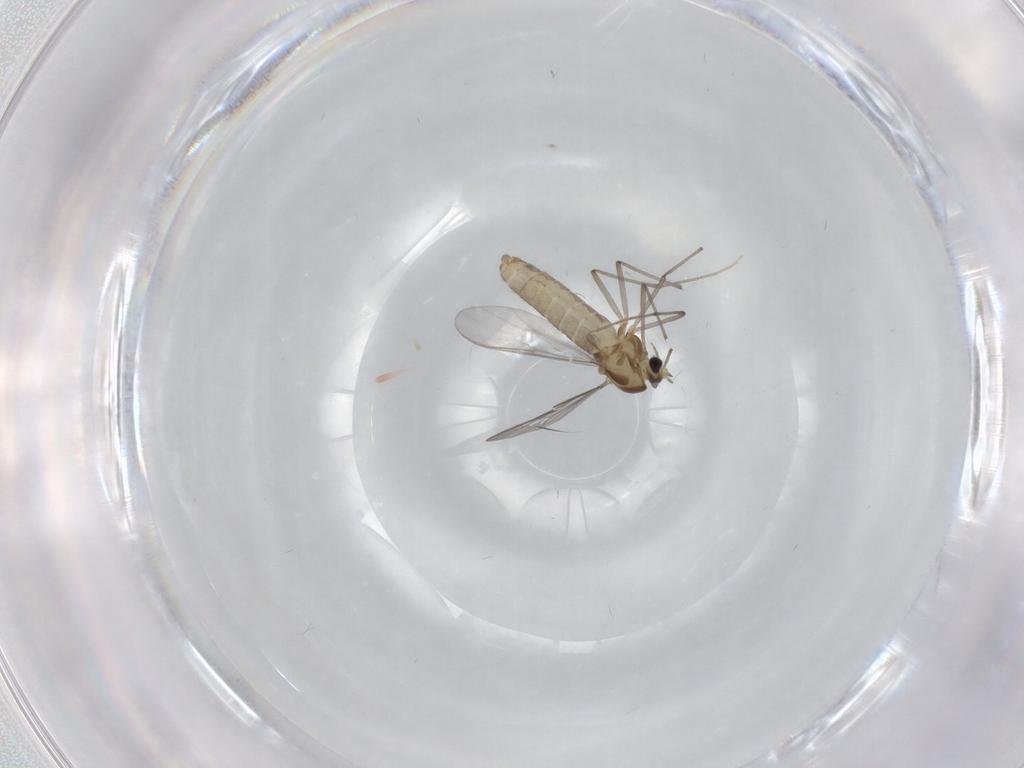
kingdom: Animalia
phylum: Arthropoda
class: Insecta
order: Diptera
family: Chironomidae
